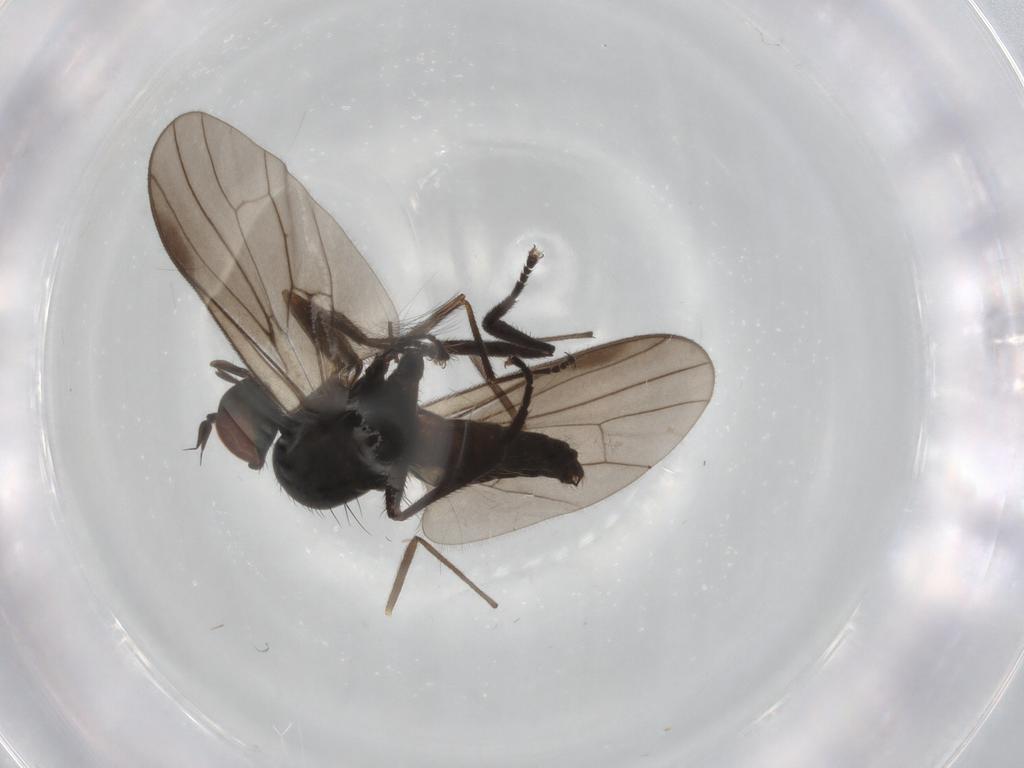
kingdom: Animalia
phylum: Arthropoda
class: Insecta
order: Diptera
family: Hybotidae
